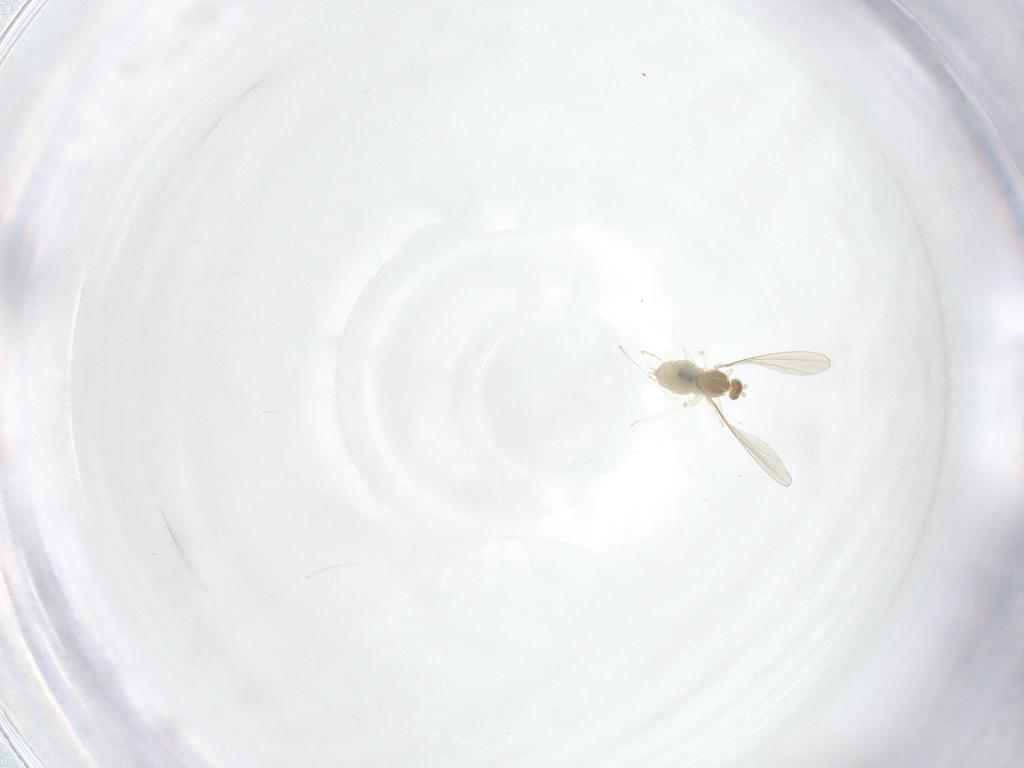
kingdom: Animalia
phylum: Arthropoda
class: Insecta
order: Diptera
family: Cecidomyiidae
